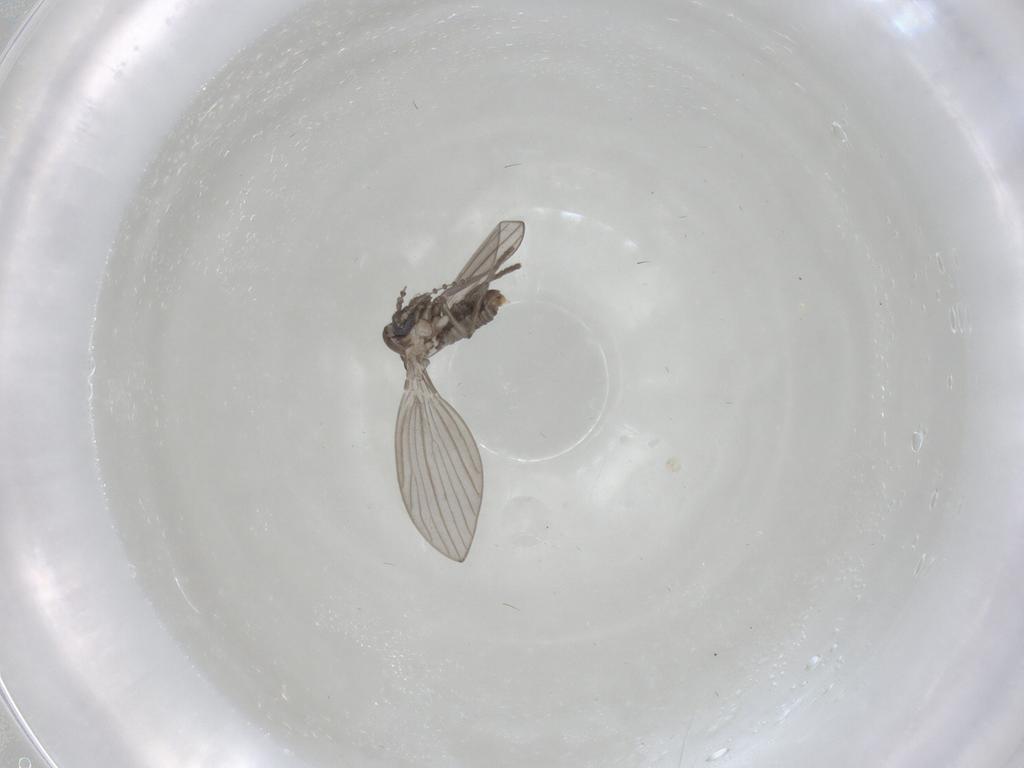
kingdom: Animalia
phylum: Arthropoda
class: Insecta
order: Diptera
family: Psychodidae
